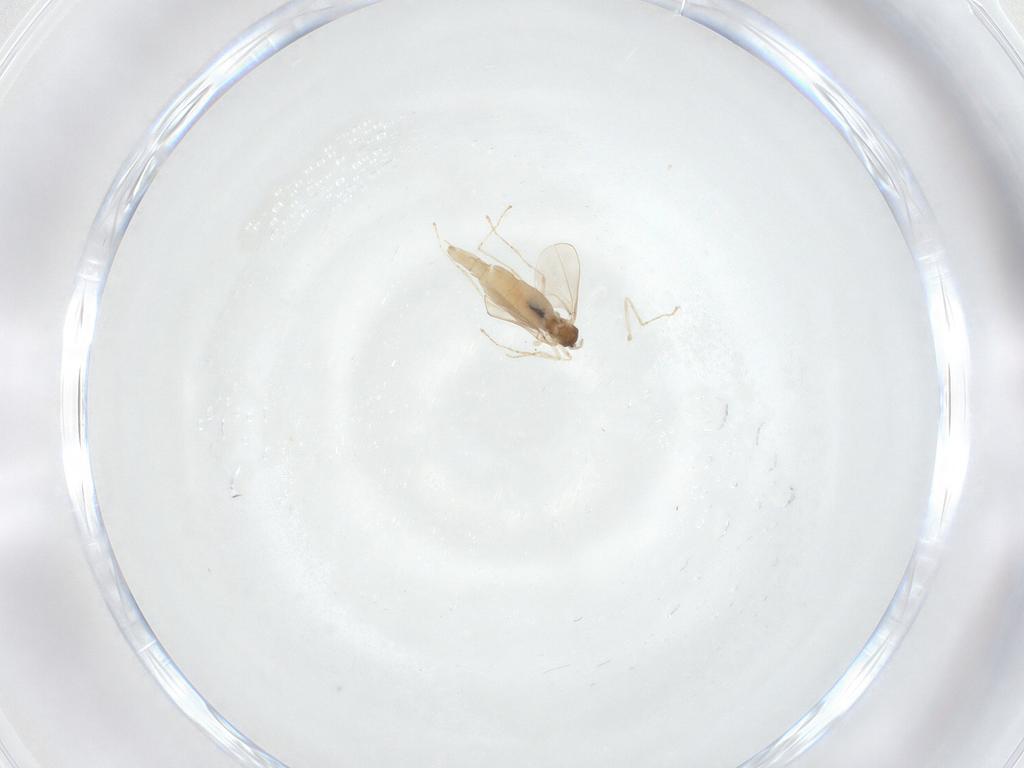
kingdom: Animalia
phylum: Arthropoda
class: Insecta
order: Diptera
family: Cecidomyiidae
